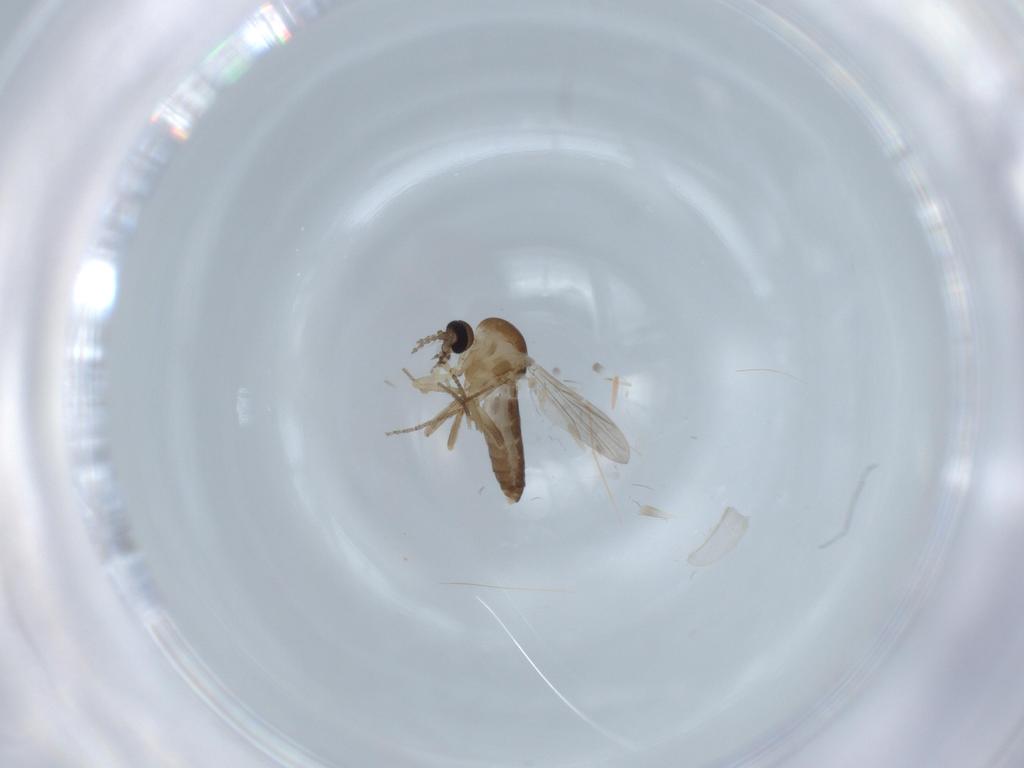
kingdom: Animalia
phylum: Arthropoda
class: Insecta
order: Diptera
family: Ceratopogonidae
